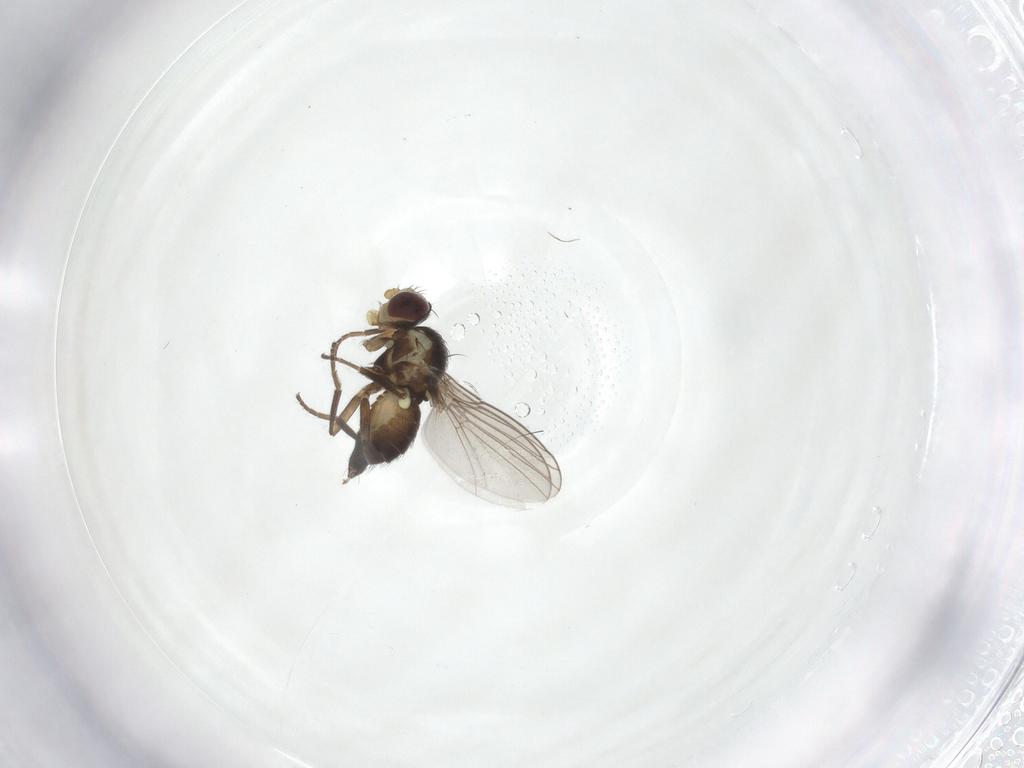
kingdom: Animalia
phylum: Arthropoda
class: Insecta
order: Diptera
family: Agromyzidae
